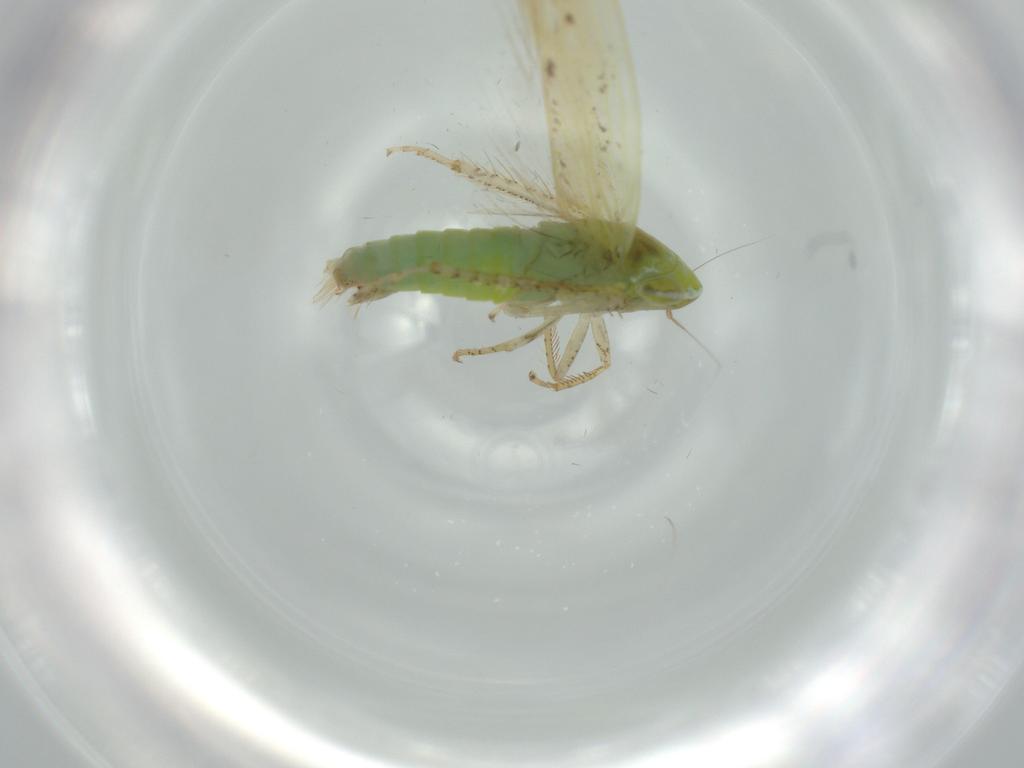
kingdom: Animalia
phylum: Arthropoda
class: Insecta
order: Hemiptera
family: Cicadellidae
